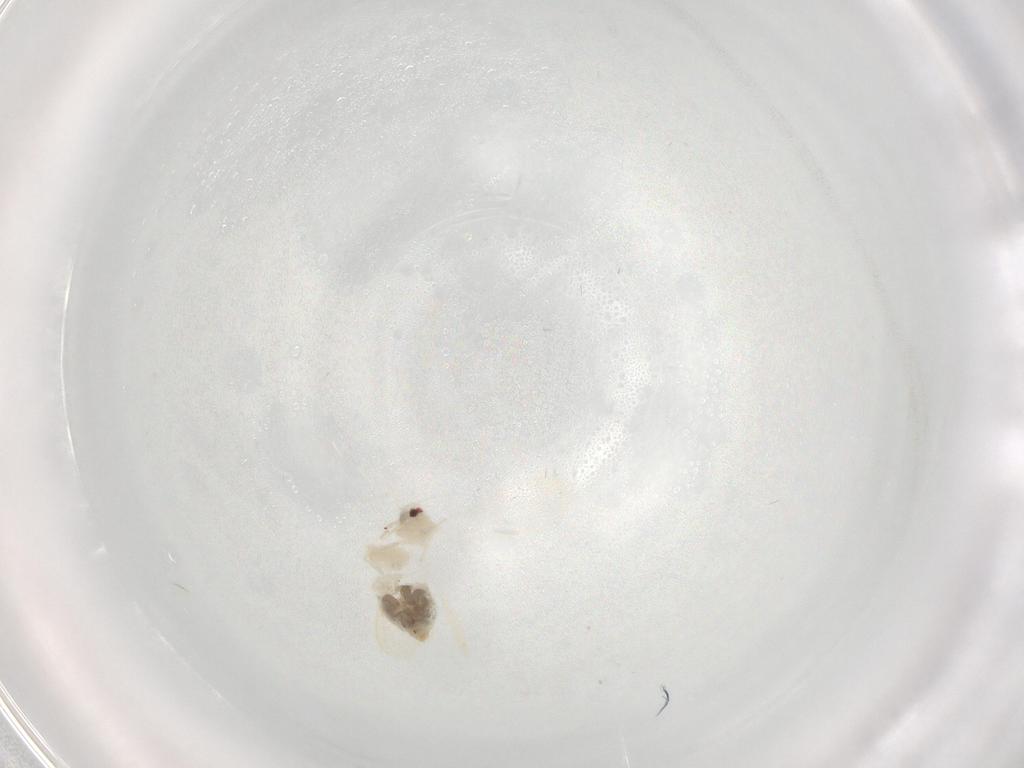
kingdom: Animalia
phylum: Arthropoda
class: Insecta
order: Hemiptera
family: Aleyrodidae
